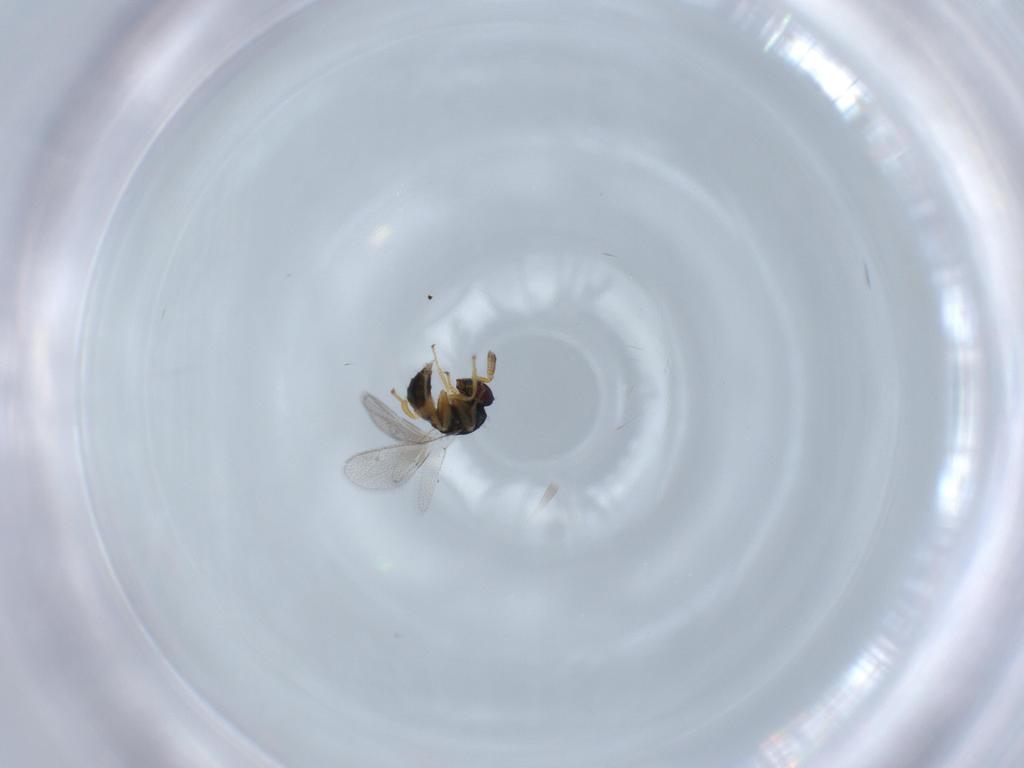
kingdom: Animalia
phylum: Arthropoda
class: Insecta
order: Hymenoptera
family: Torymidae
